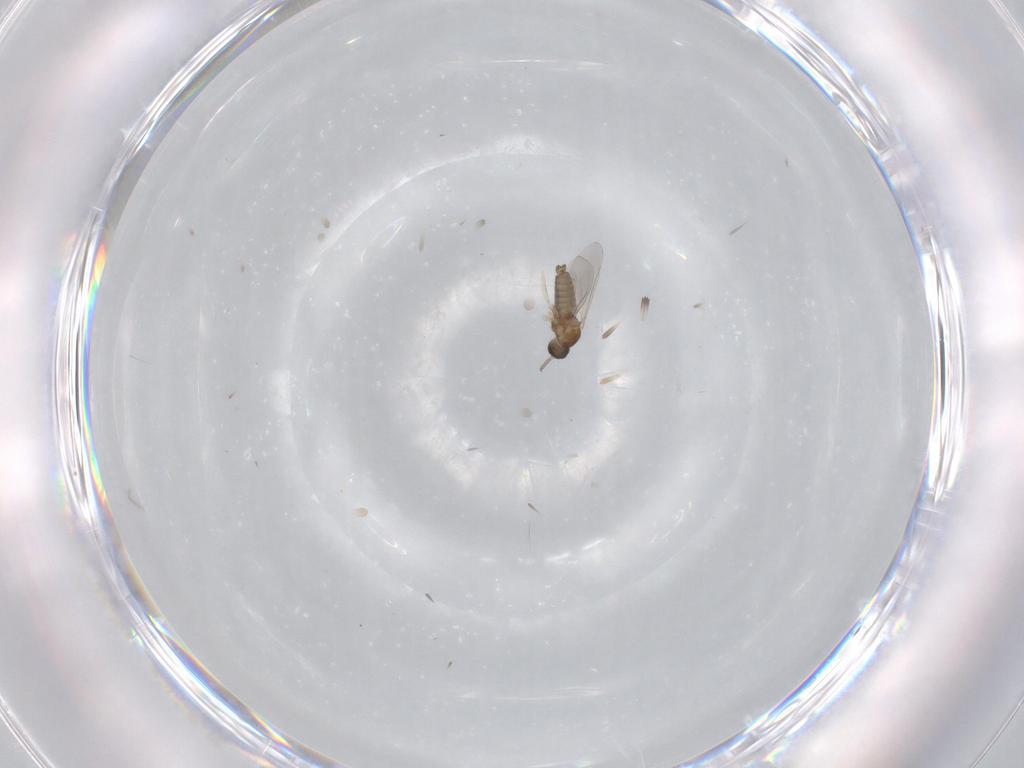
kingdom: Animalia
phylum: Arthropoda
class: Insecta
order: Diptera
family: Cecidomyiidae
